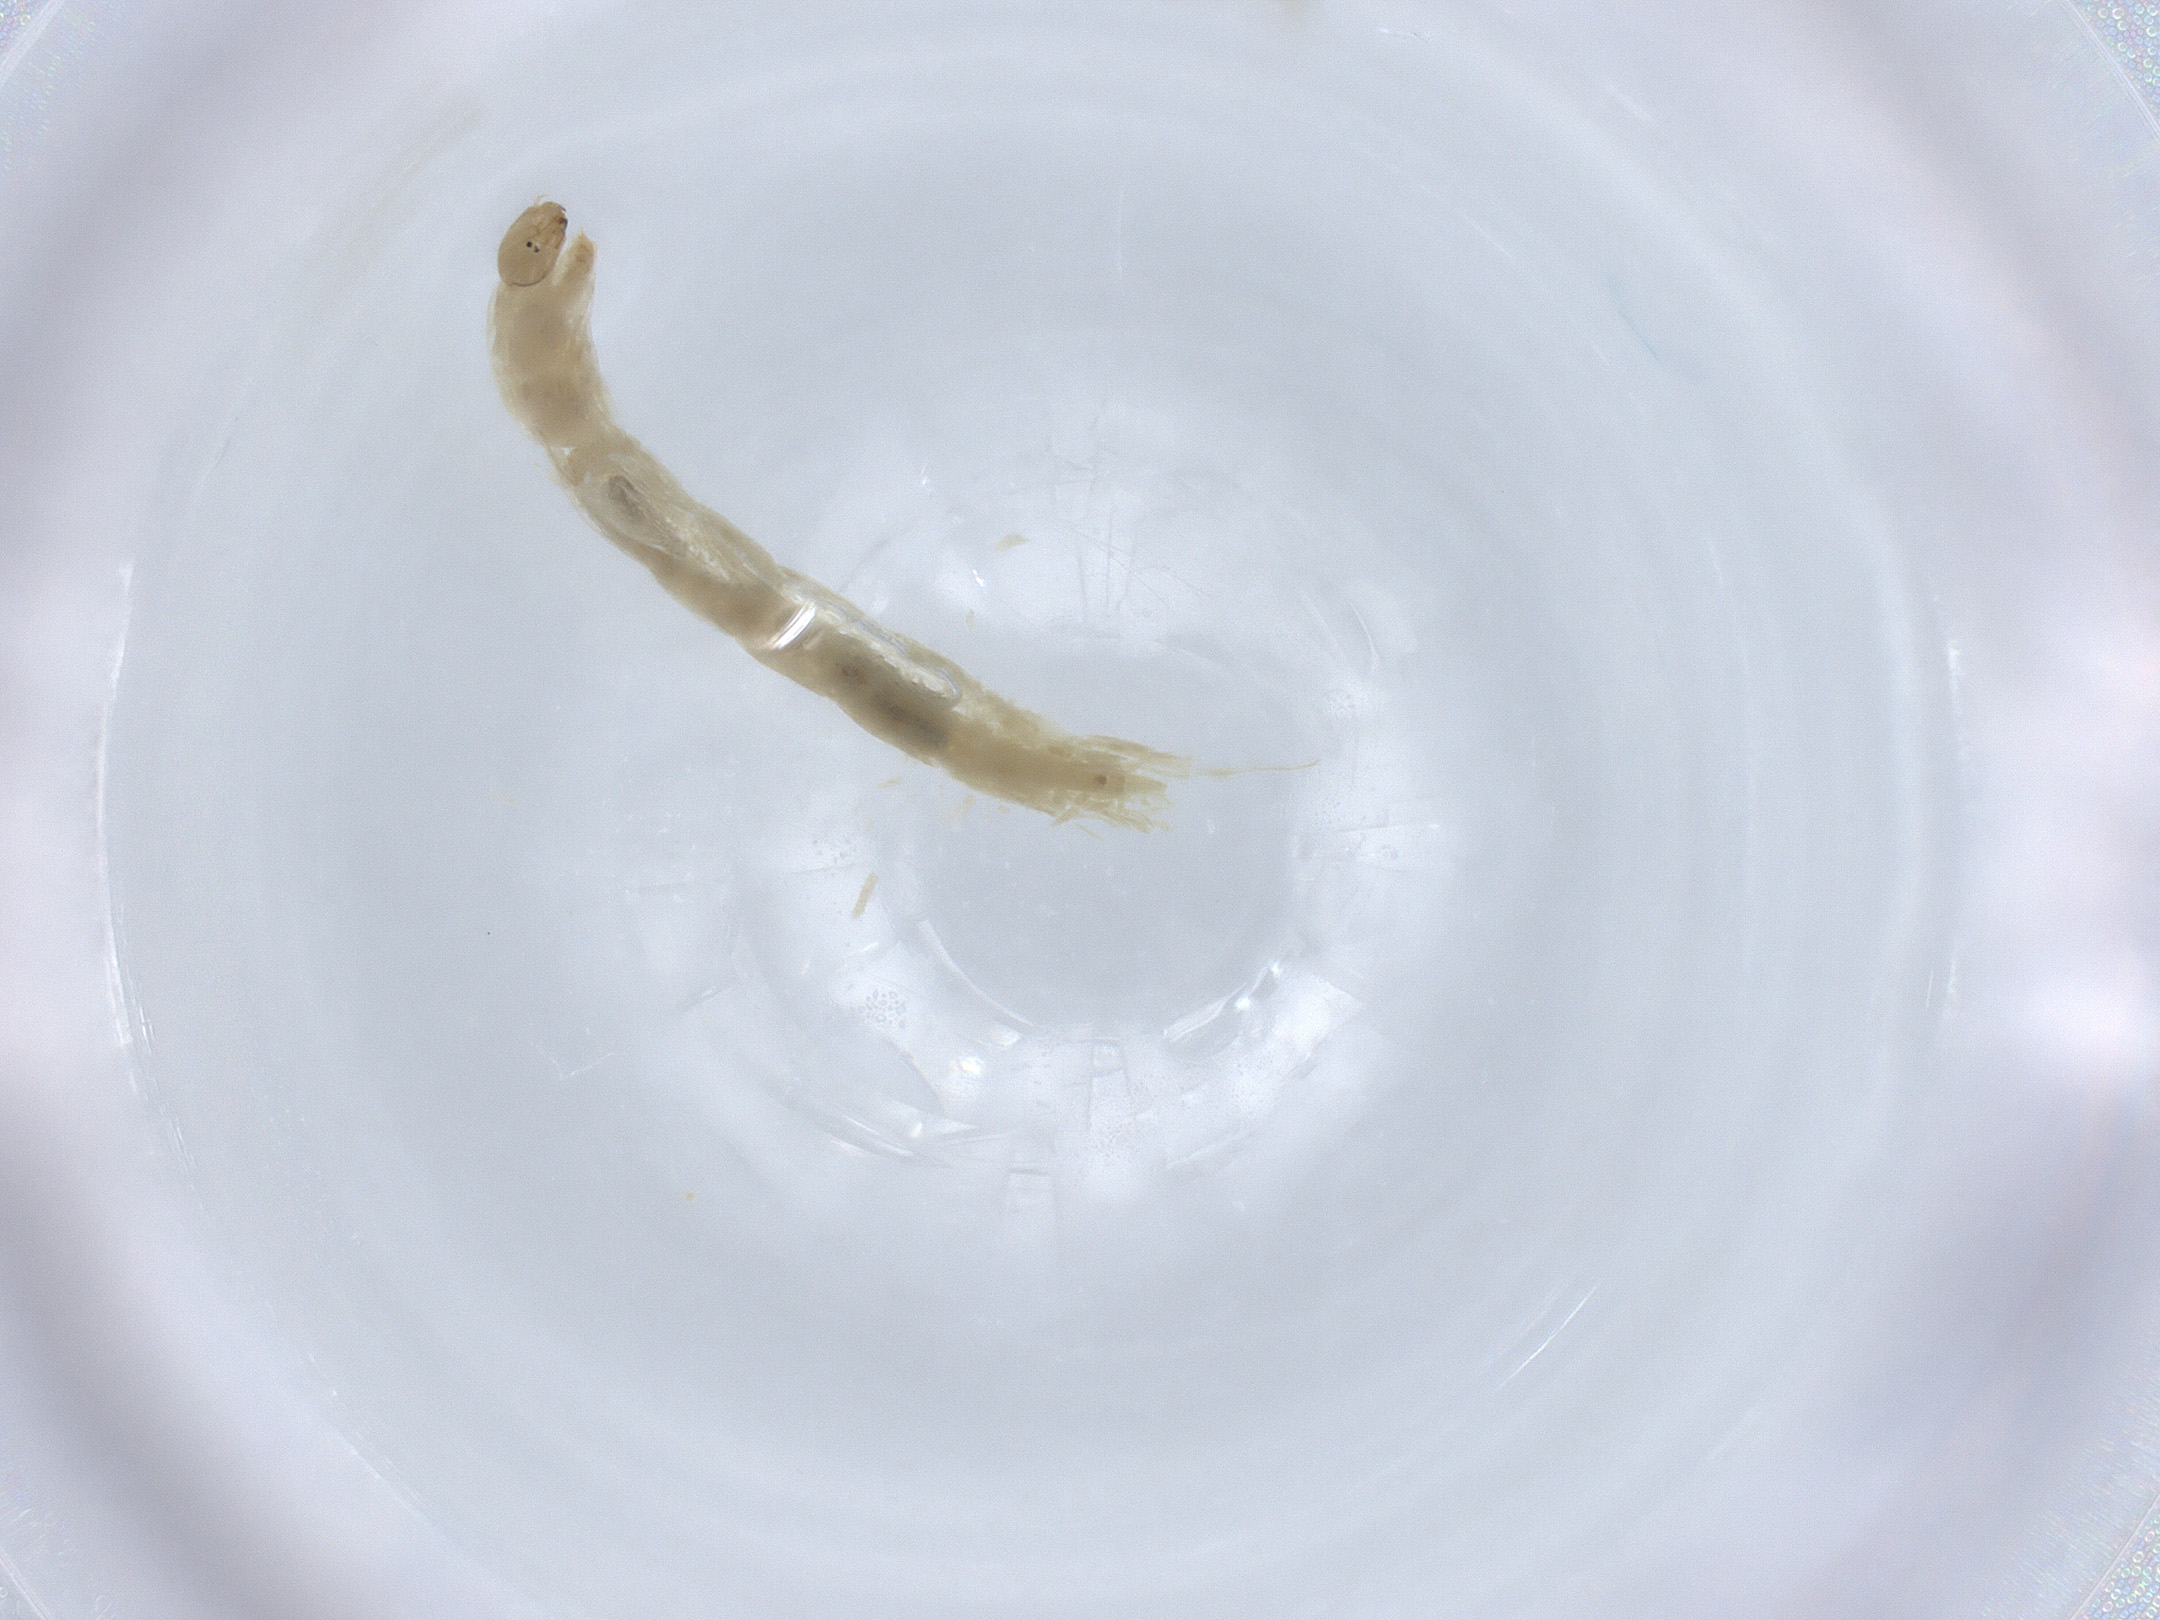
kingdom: Animalia
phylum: Arthropoda
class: Insecta
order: Diptera
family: Chironomidae
